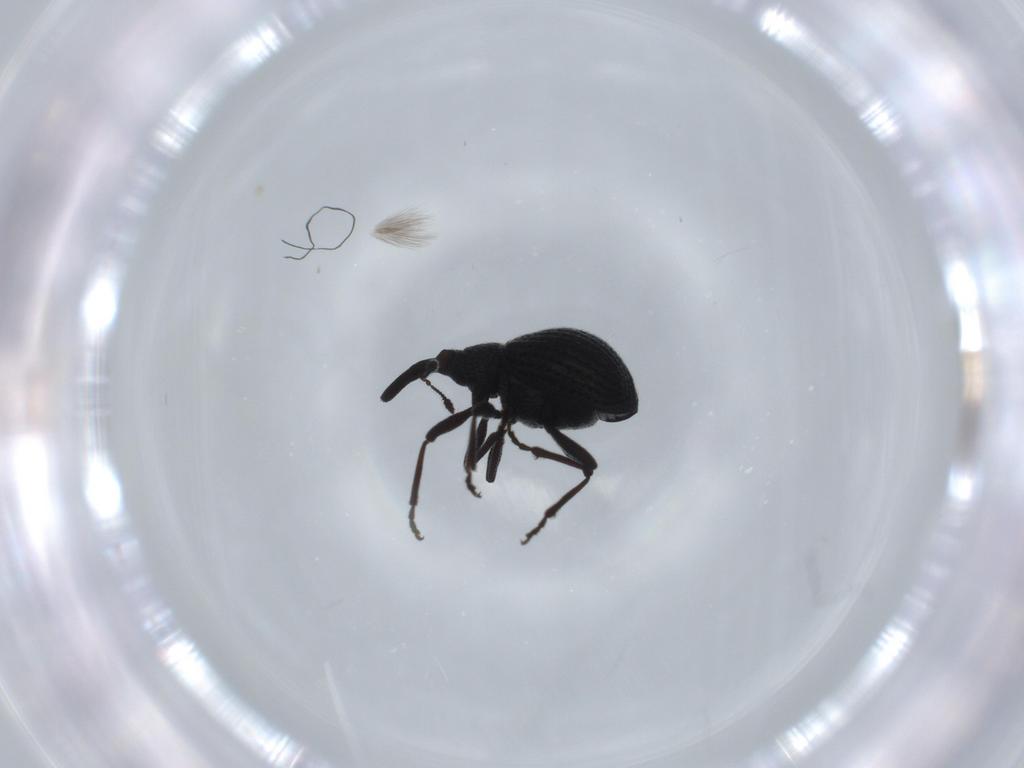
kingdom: Animalia
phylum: Arthropoda
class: Insecta
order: Coleoptera
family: Brentidae
